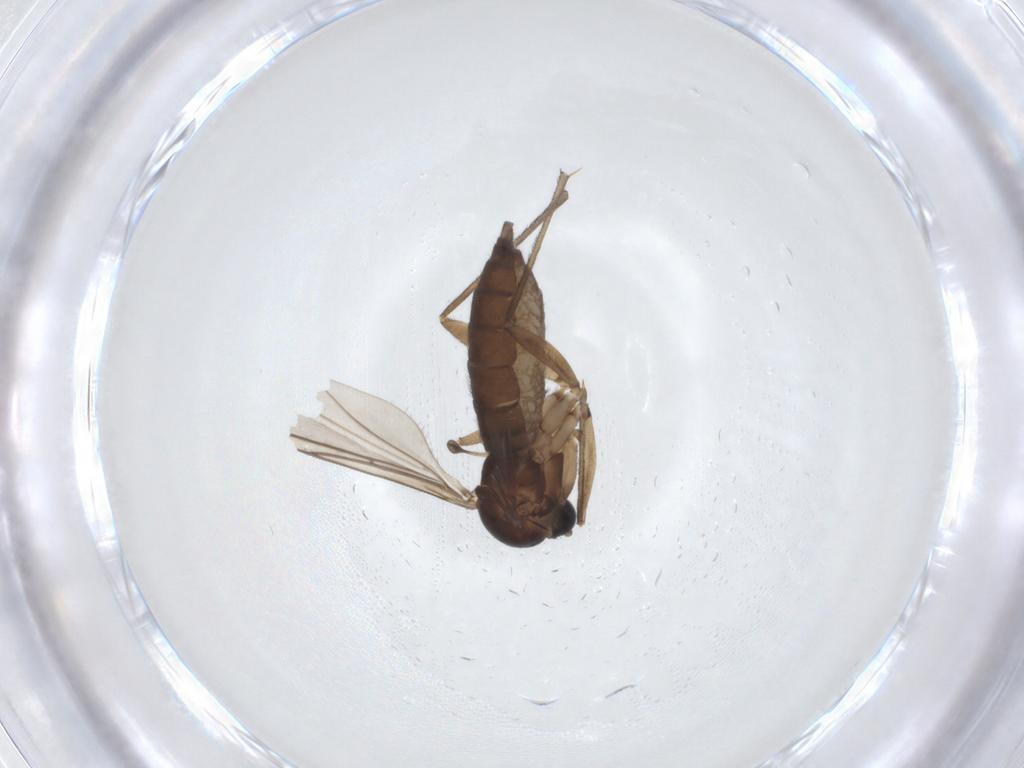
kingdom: Animalia
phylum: Arthropoda
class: Insecta
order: Diptera
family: Sciaridae
